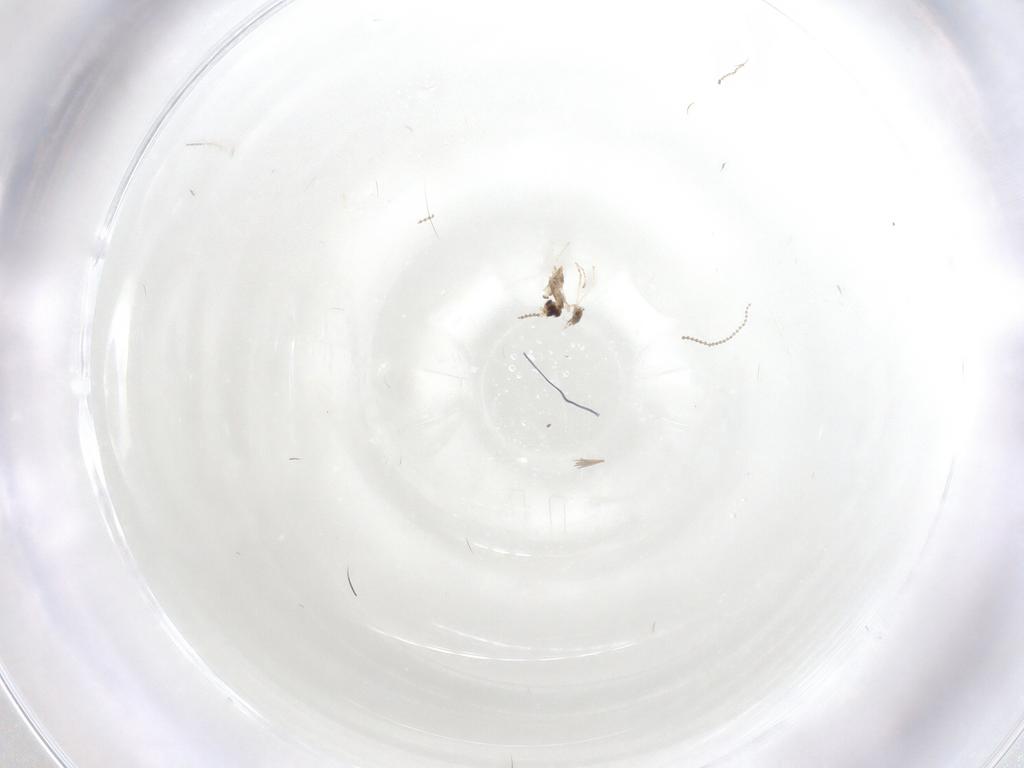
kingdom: Animalia
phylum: Arthropoda
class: Insecta
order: Diptera
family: Cecidomyiidae
